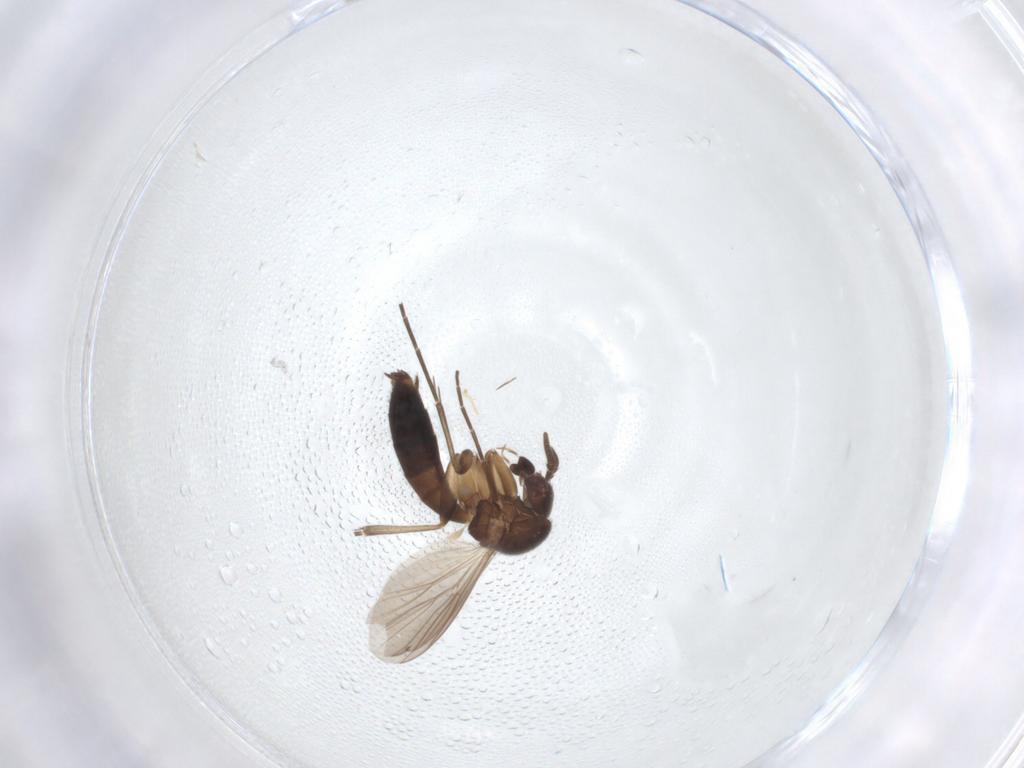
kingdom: Animalia
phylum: Arthropoda
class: Insecta
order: Diptera
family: Mycetophilidae
